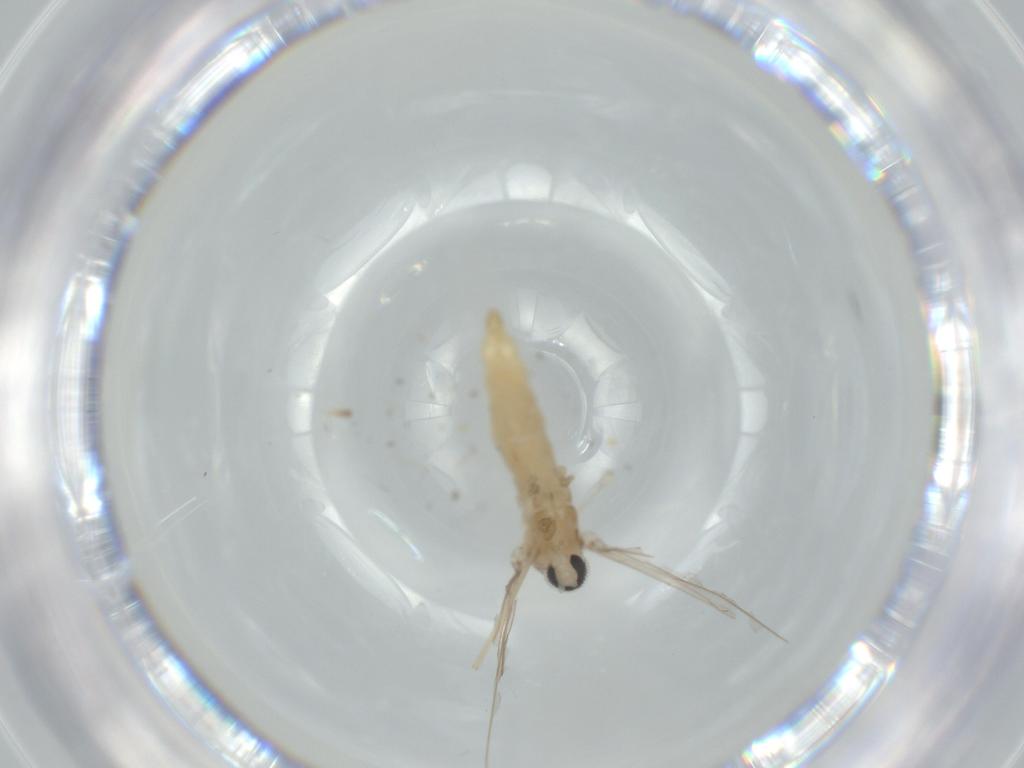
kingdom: Animalia
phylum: Arthropoda
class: Insecta
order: Diptera
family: Cecidomyiidae
